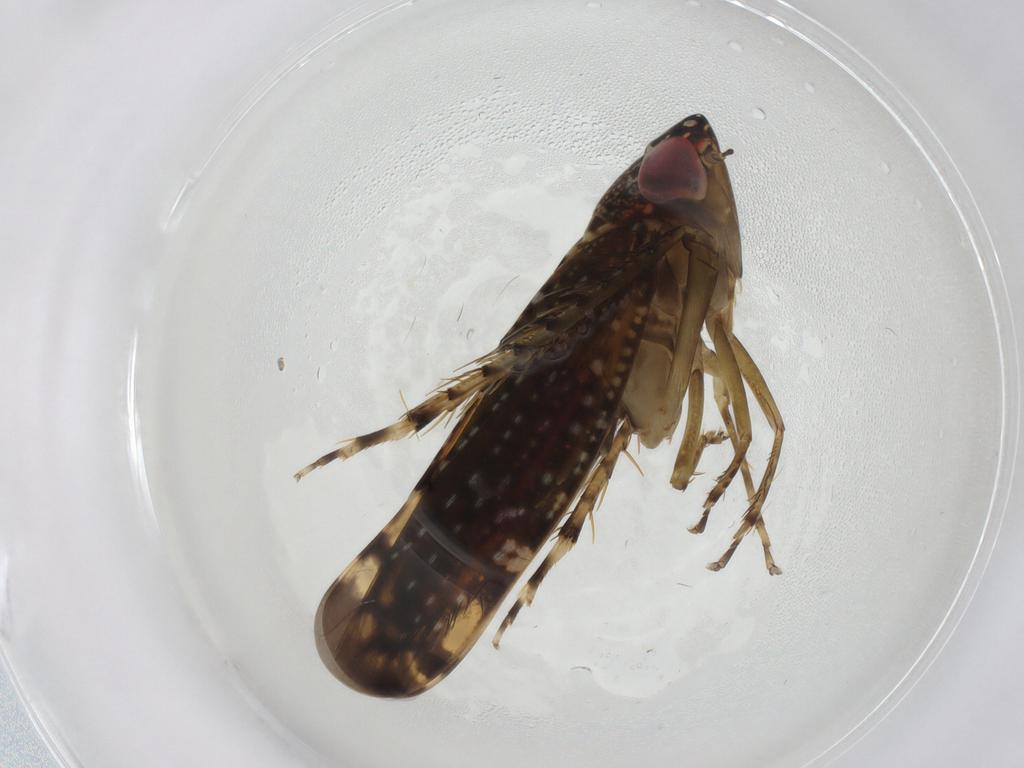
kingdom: Animalia
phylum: Arthropoda
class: Insecta
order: Hemiptera
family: Cicadellidae
